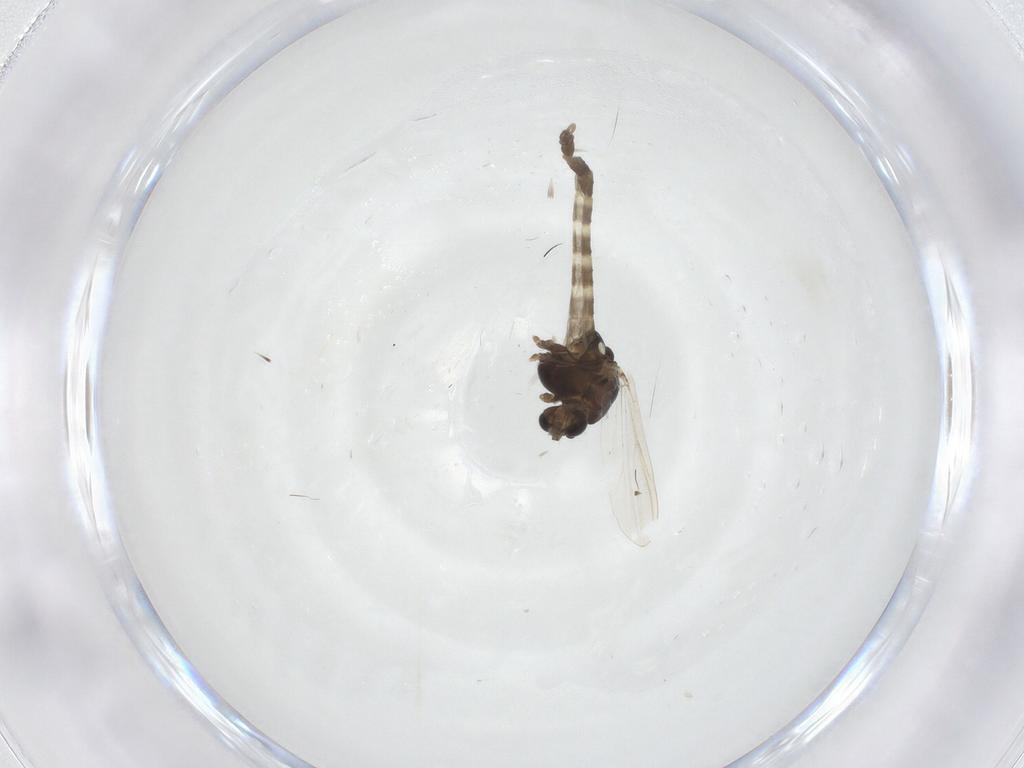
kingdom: Animalia
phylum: Arthropoda
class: Insecta
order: Diptera
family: Chironomidae
